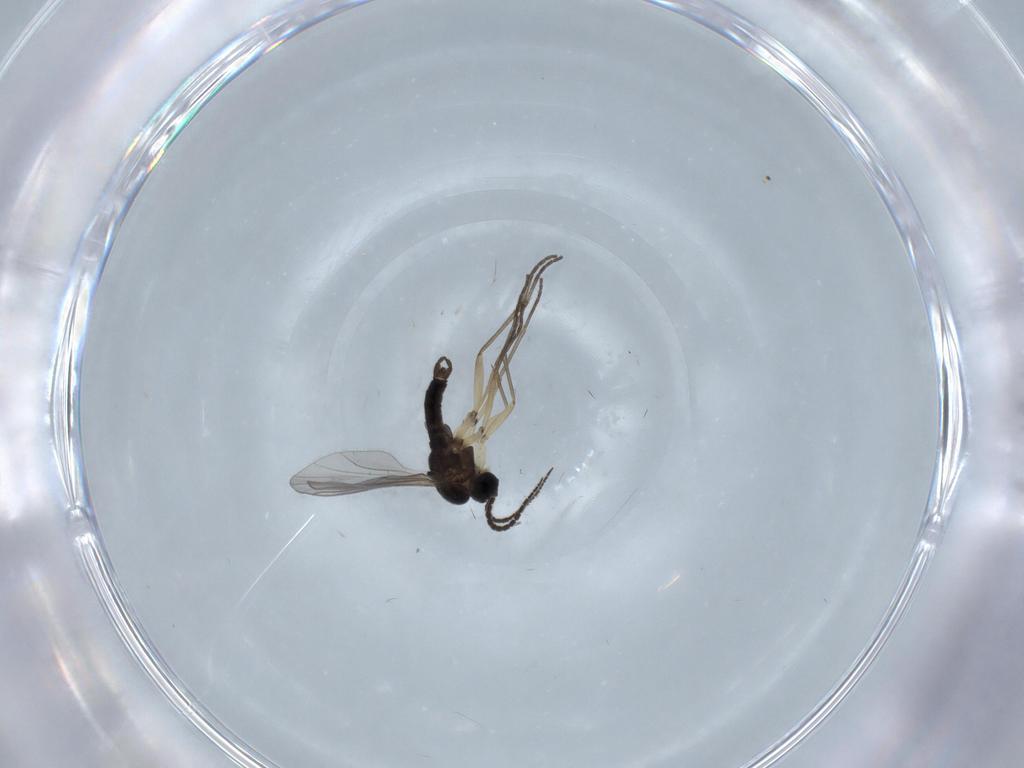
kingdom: Animalia
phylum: Arthropoda
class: Insecta
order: Diptera
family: Sciaridae
